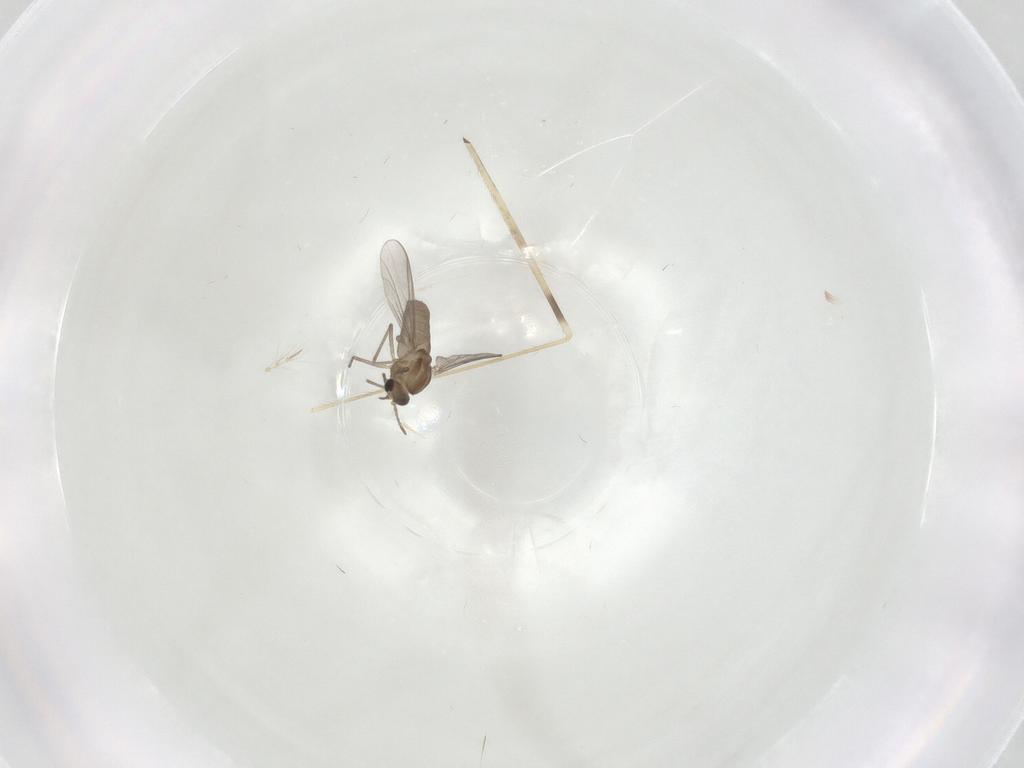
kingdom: Animalia
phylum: Arthropoda
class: Insecta
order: Diptera
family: Limoniidae
